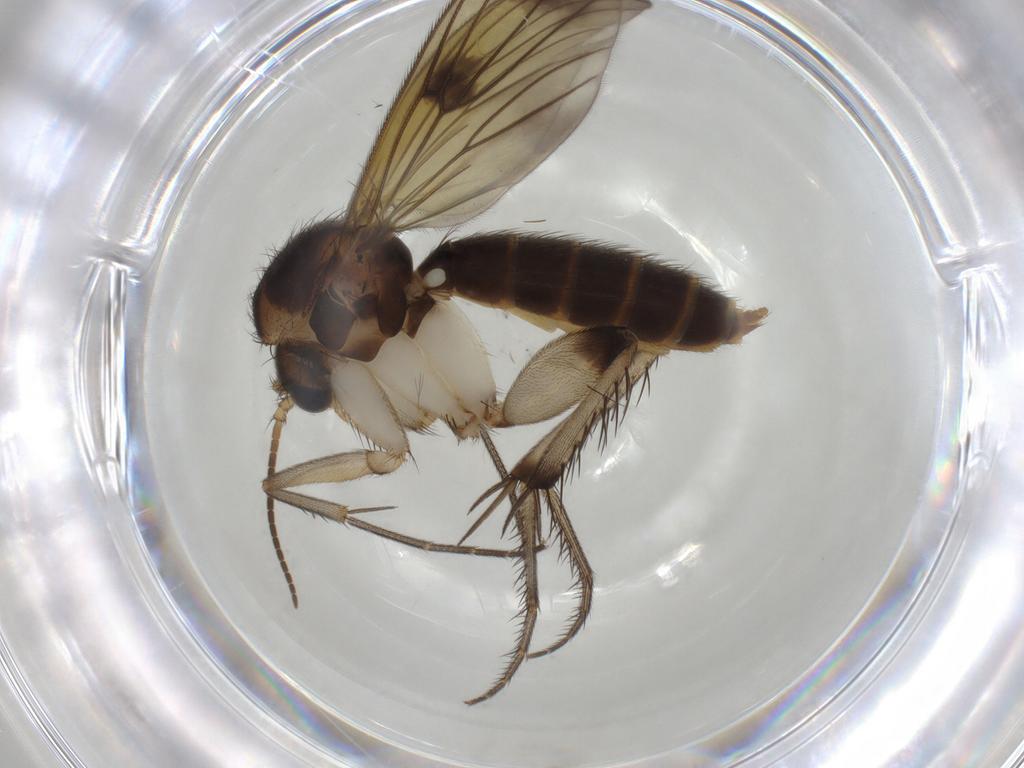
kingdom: Animalia
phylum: Arthropoda
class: Insecta
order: Diptera
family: Mycetophilidae
